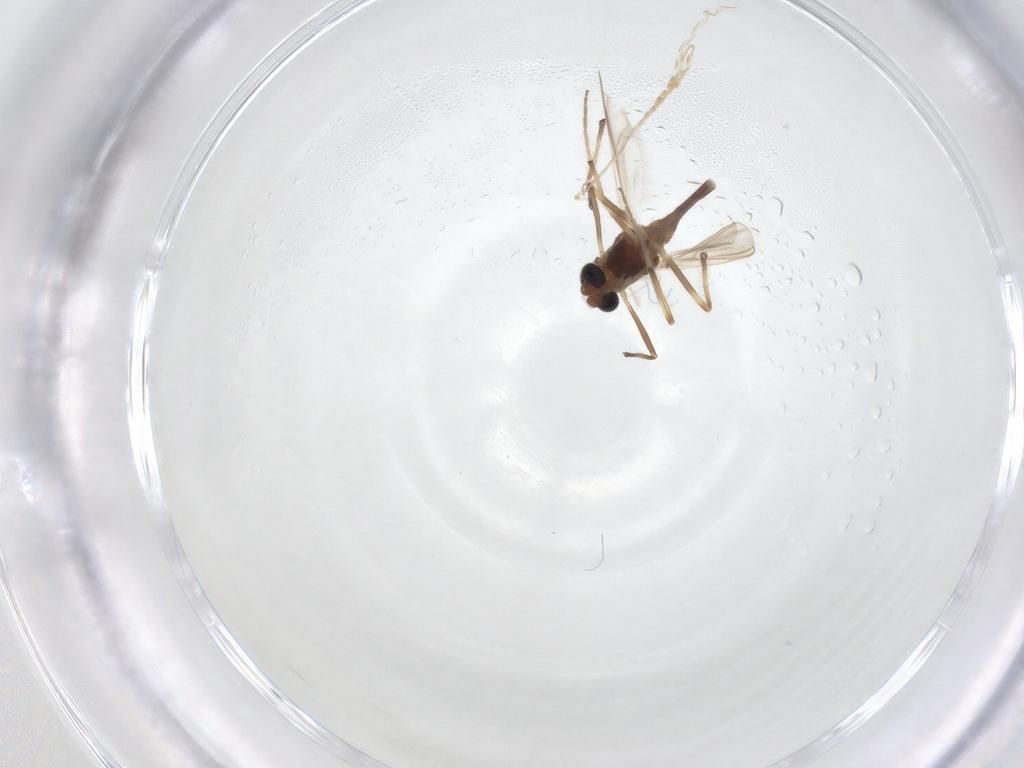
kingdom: Animalia
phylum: Arthropoda
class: Insecta
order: Diptera
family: Chironomidae
